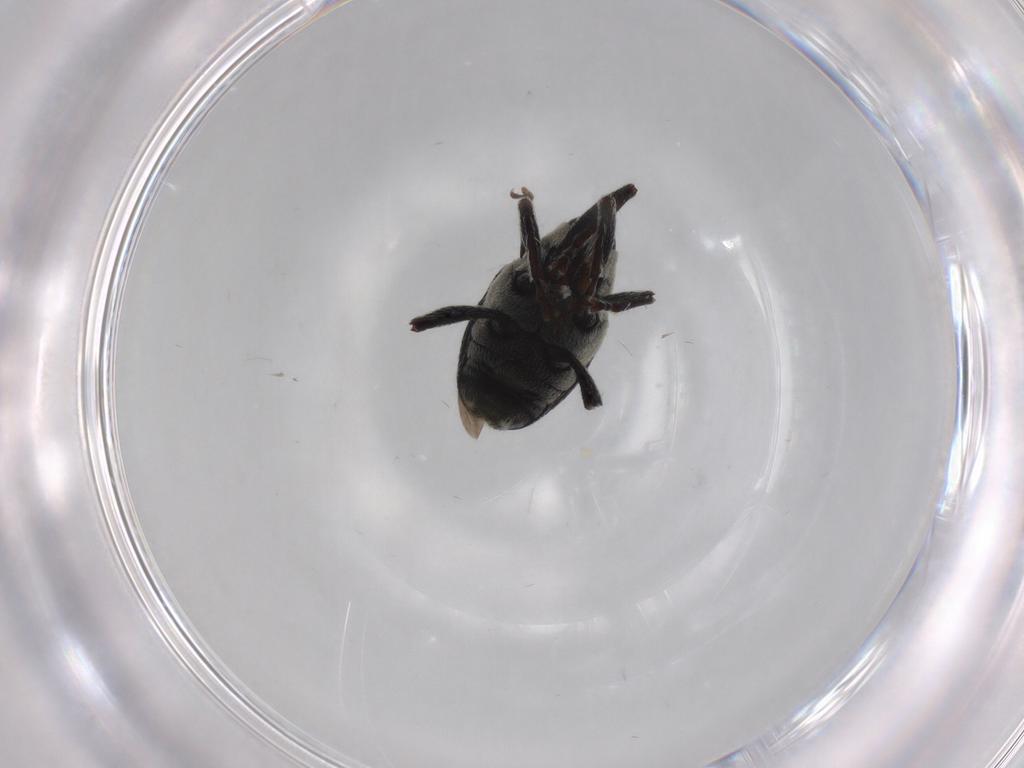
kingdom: Animalia
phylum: Arthropoda
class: Insecta
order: Coleoptera
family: Curculionidae
